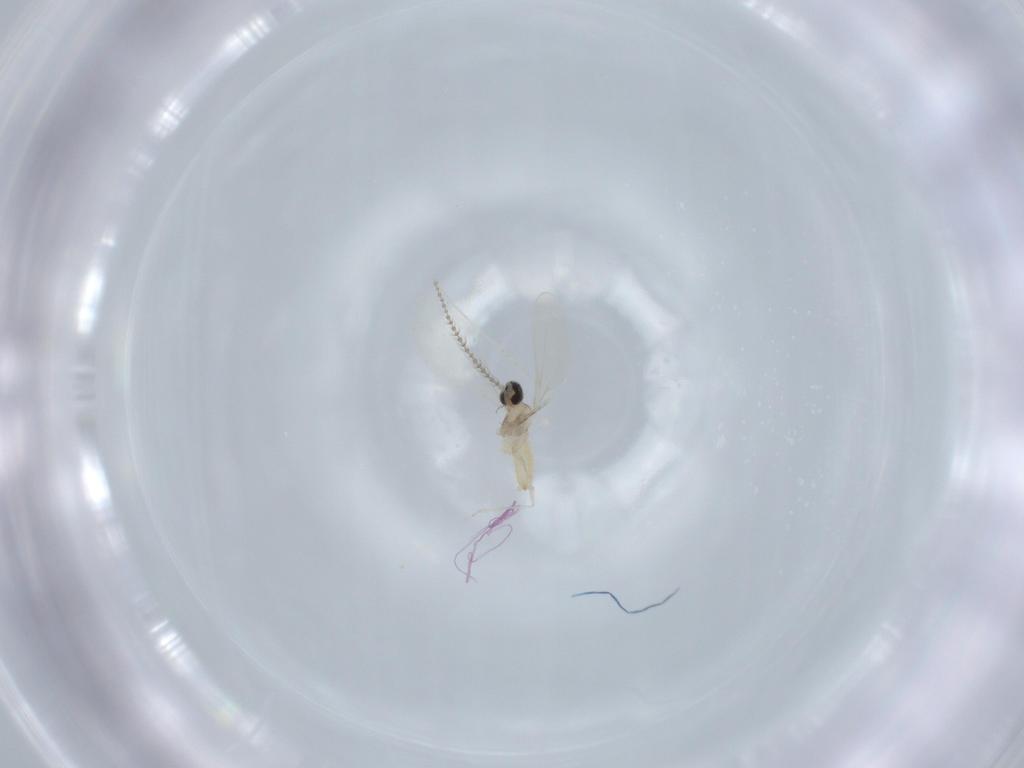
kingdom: Animalia
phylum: Arthropoda
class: Insecta
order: Diptera
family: Cecidomyiidae
